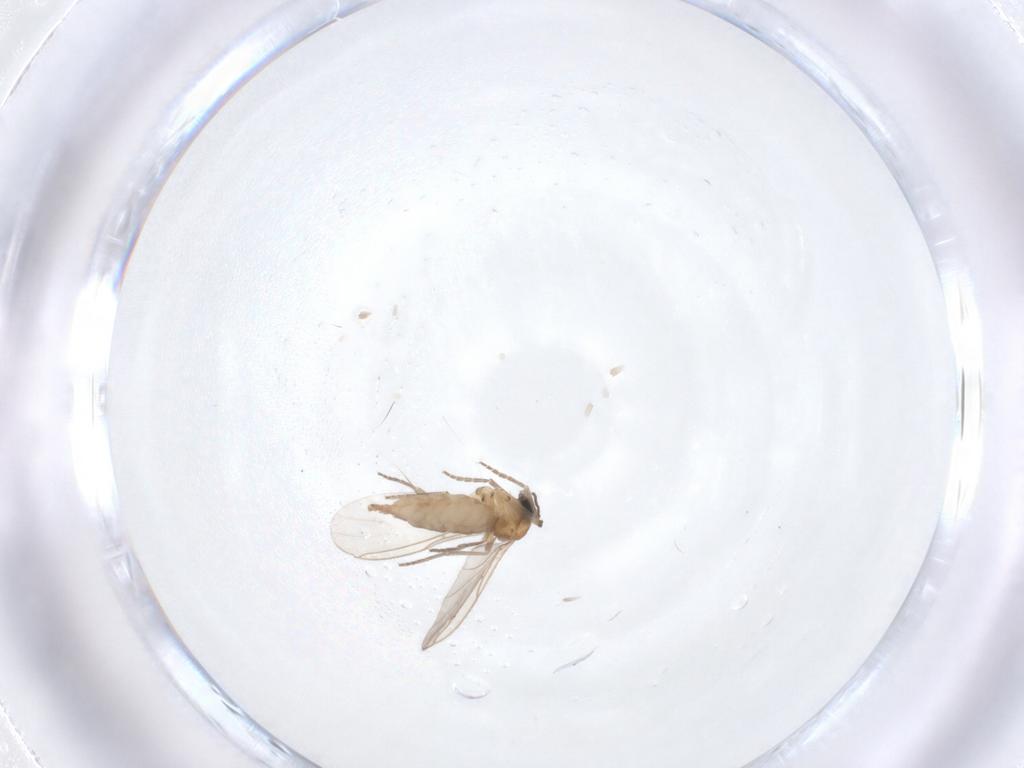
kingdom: Animalia
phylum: Arthropoda
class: Insecta
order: Diptera
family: Sciaridae
